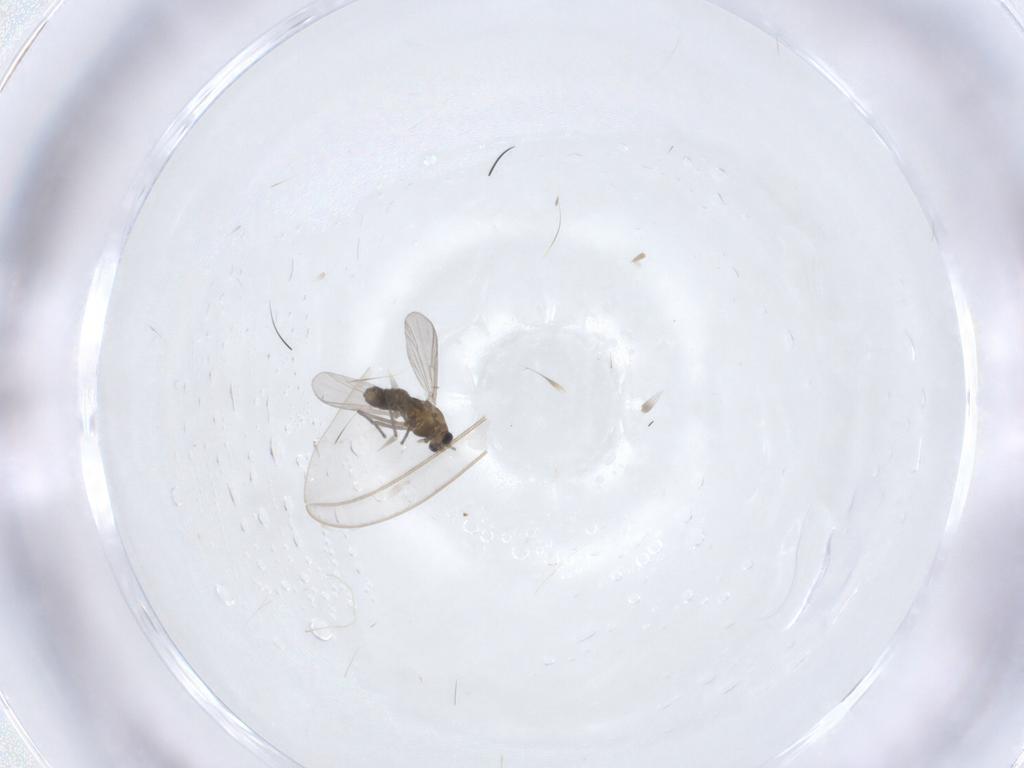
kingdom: Animalia
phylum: Arthropoda
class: Insecta
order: Diptera
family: Chironomidae
